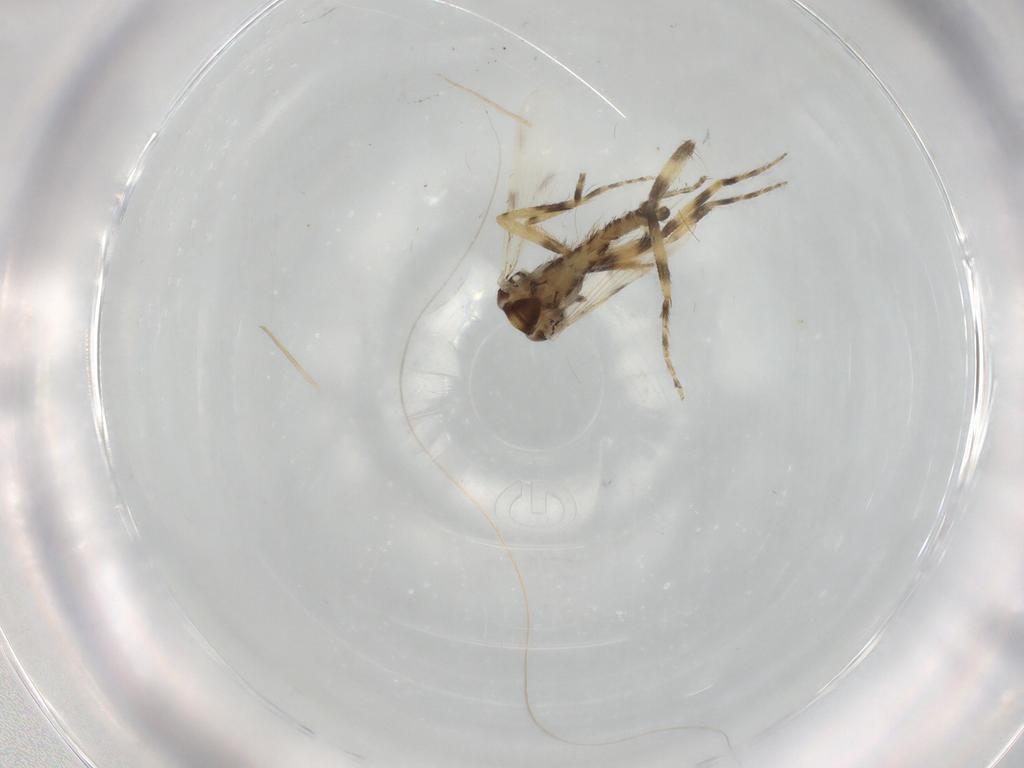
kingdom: Animalia
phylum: Arthropoda
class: Insecta
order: Diptera
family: Ceratopogonidae
